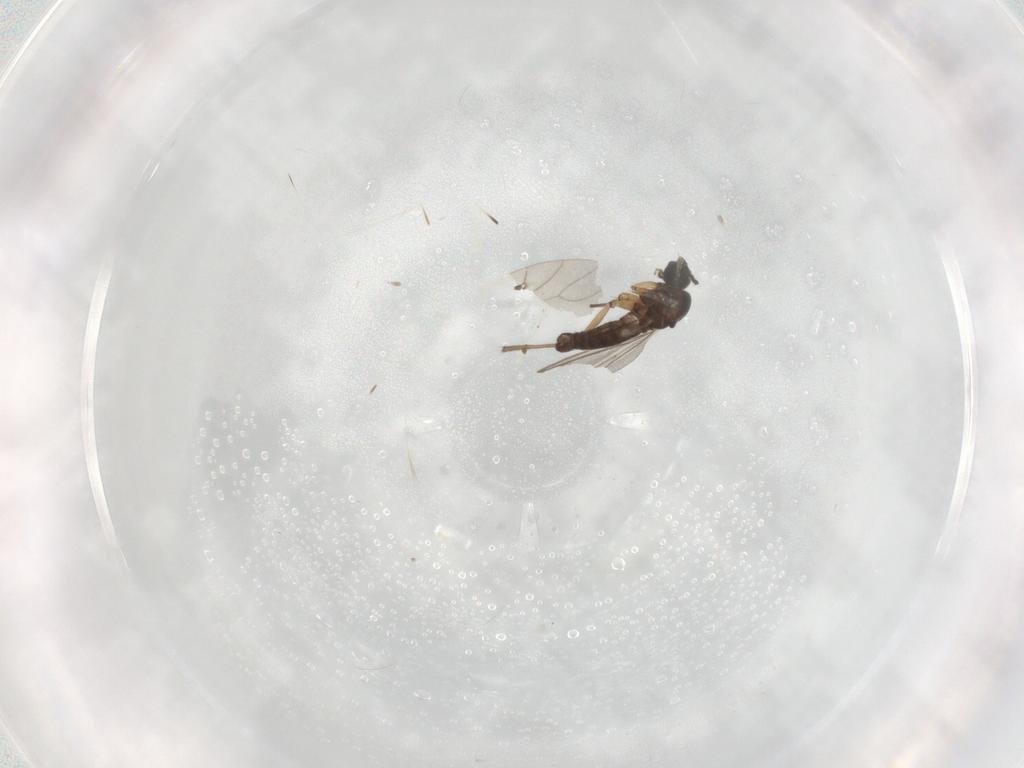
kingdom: Animalia
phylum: Arthropoda
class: Insecta
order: Diptera
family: Sciaridae
